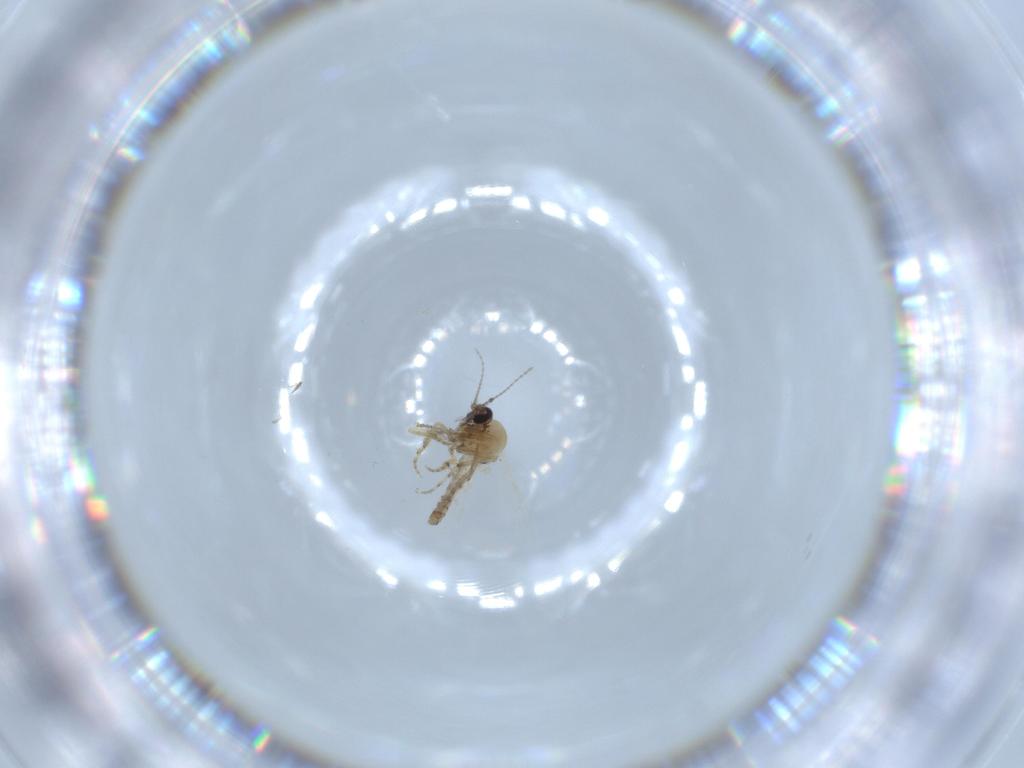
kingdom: Animalia
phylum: Arthropoda
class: Insecta
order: Diptera
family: Ceratopogonidae
